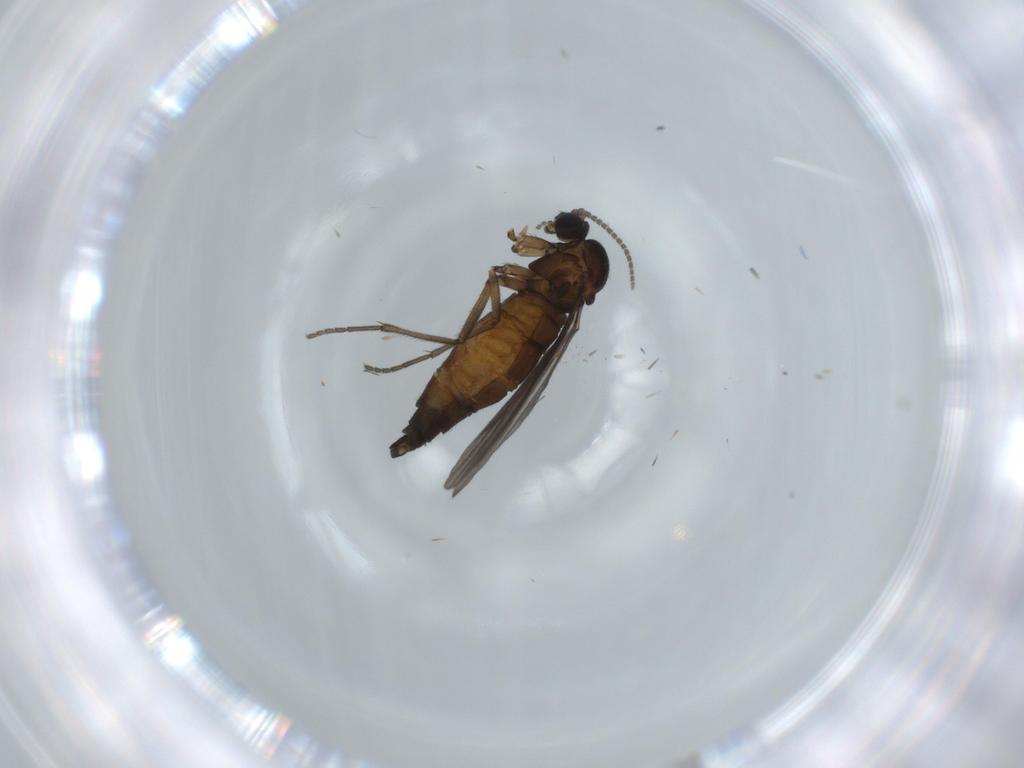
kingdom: Animalia
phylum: Arthropoda
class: Insecta
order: Diptera
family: Sciaridae
